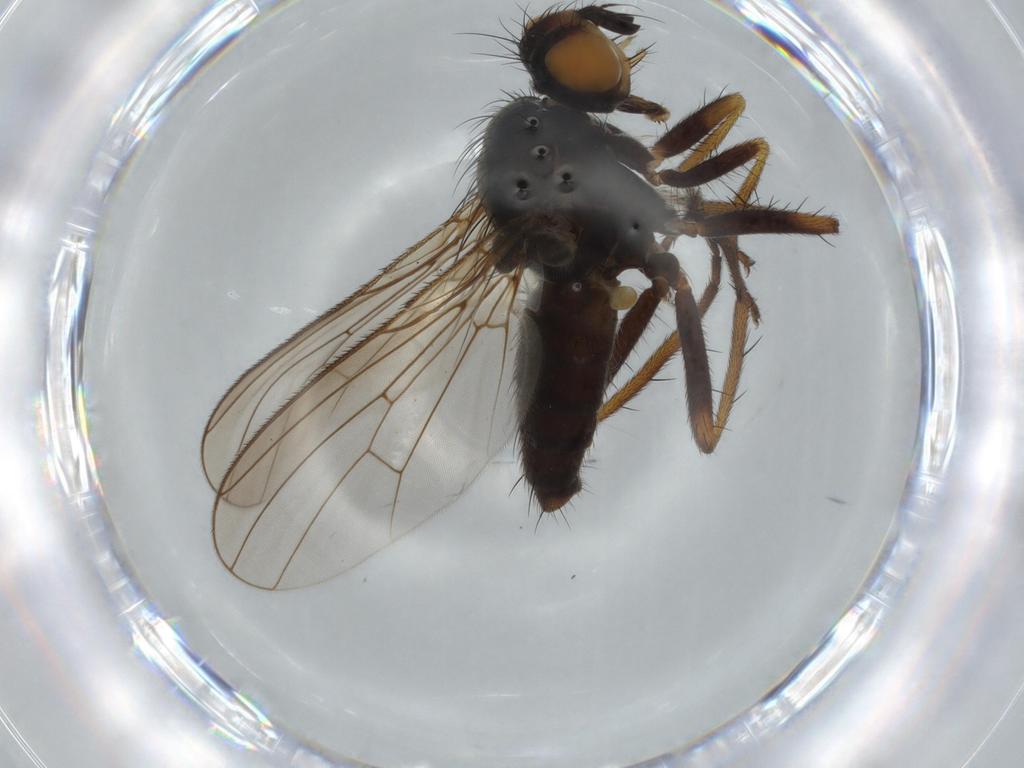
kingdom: Animalia
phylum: Arthropoda
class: Insecta
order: Diptera
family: Scathophagidae
